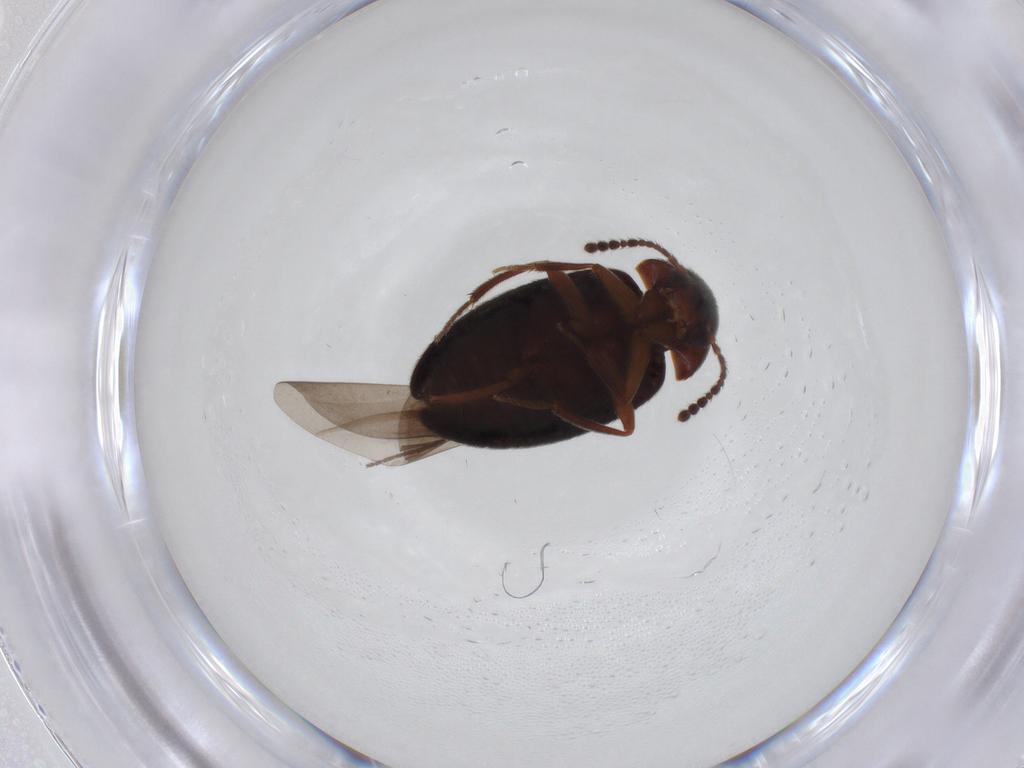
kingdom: Animalia
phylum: Arthropoda
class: Insecta
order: Coleoptera
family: Leiodidae
